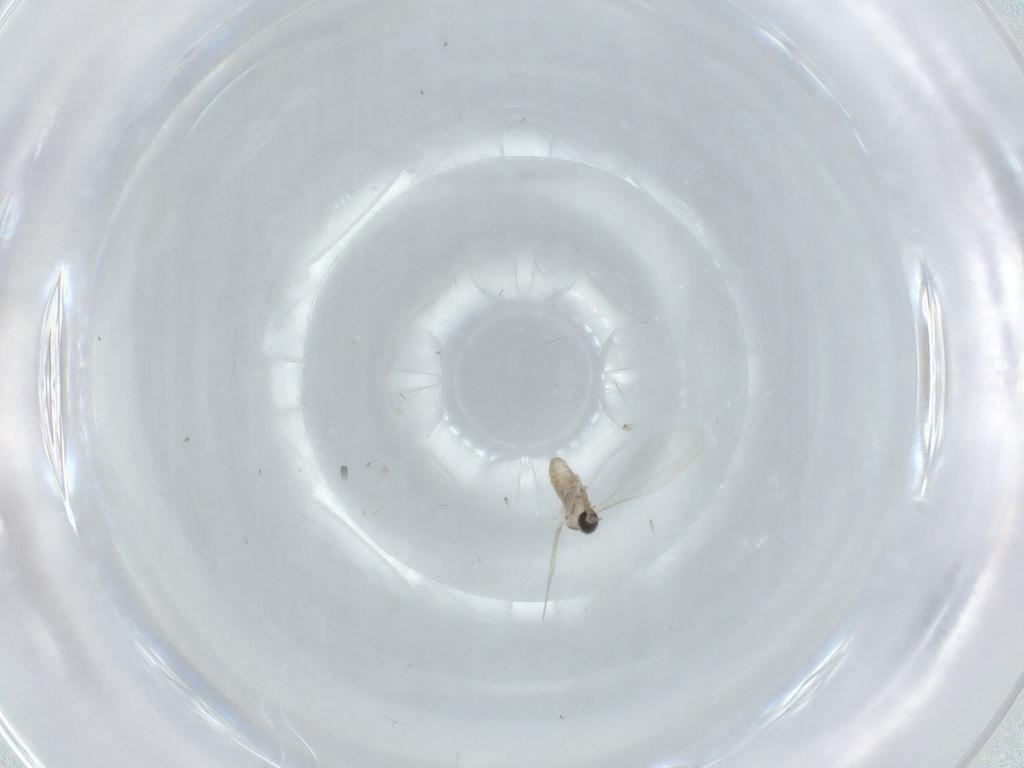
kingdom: Animalia
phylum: Arthropoda
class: Insecta
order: Diptera
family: Cecidomyiidae
